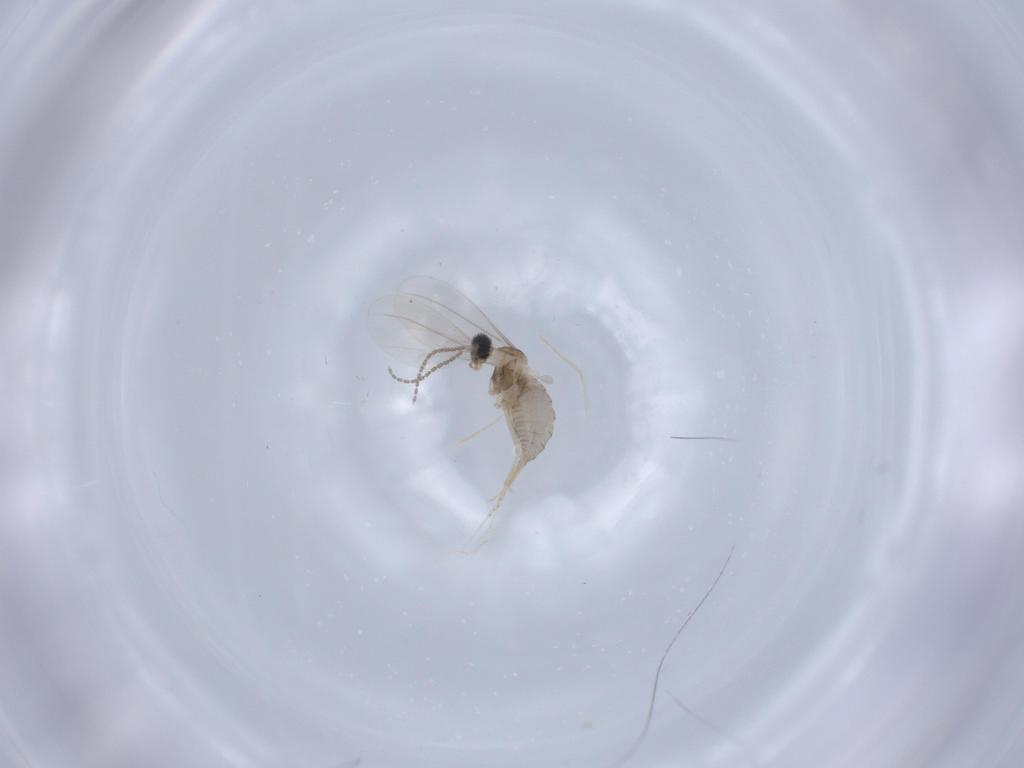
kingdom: Animalia
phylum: Arthropoda
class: Insecta
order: Diptera
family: Cecidomyiidae
